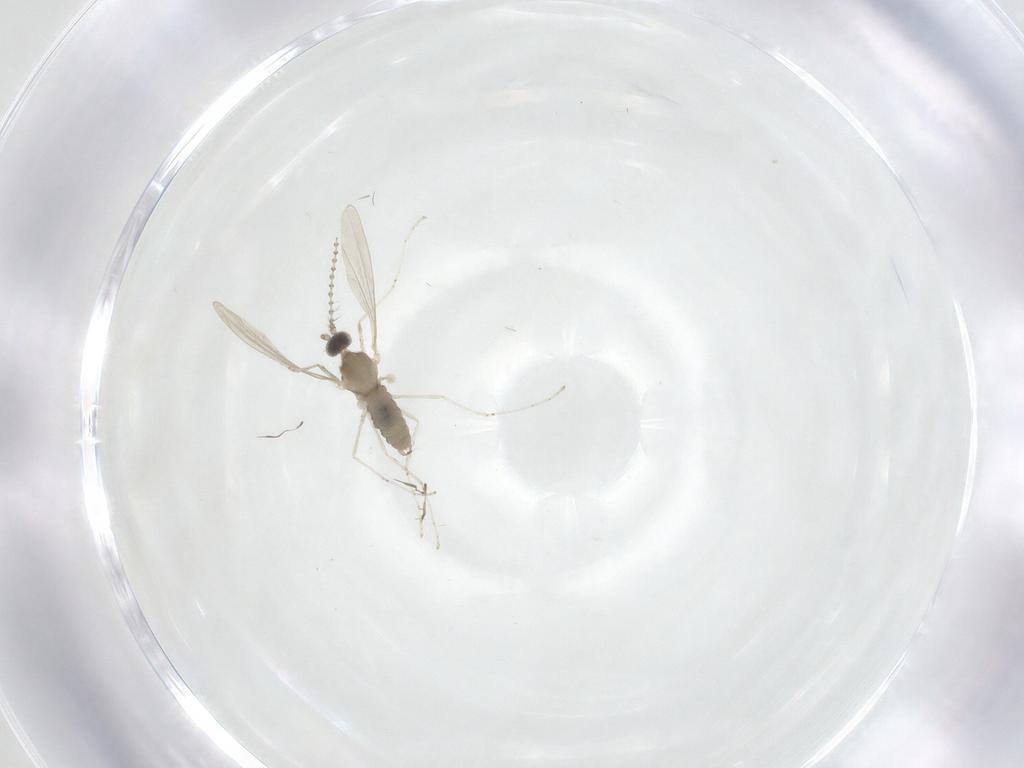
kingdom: Animalia
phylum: Arthropoda
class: Insecta
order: Diptera
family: Cecidomyiidae
